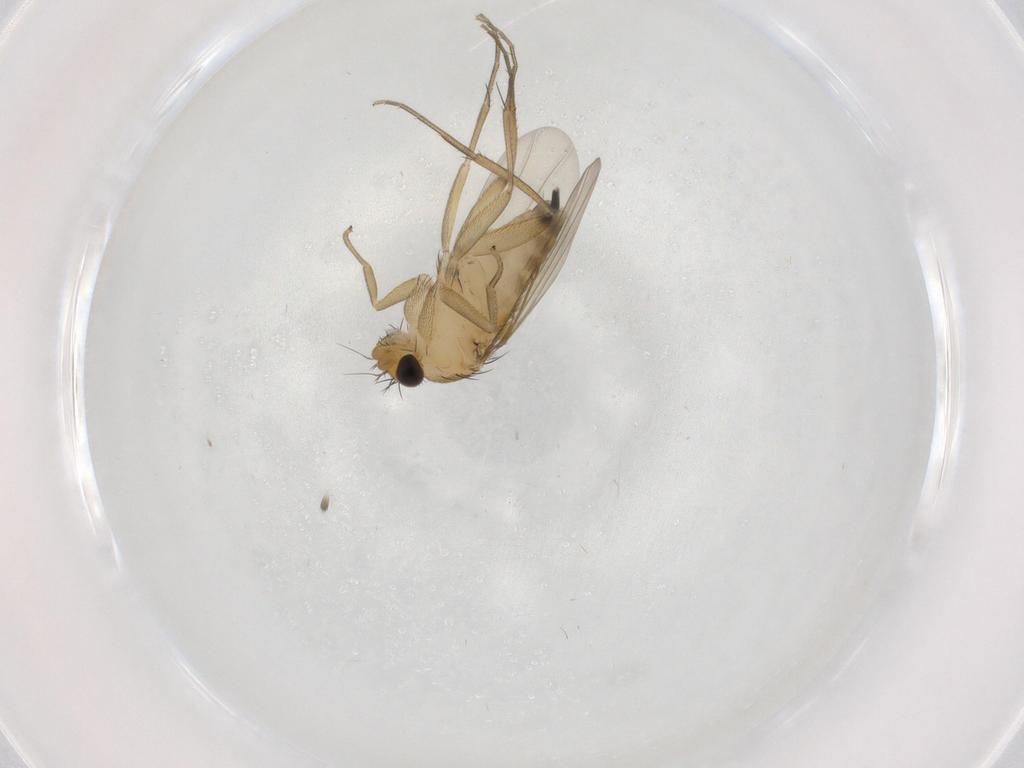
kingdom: Animalia
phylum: Arthropoda
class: Insecta
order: Diptera
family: Phoridae
